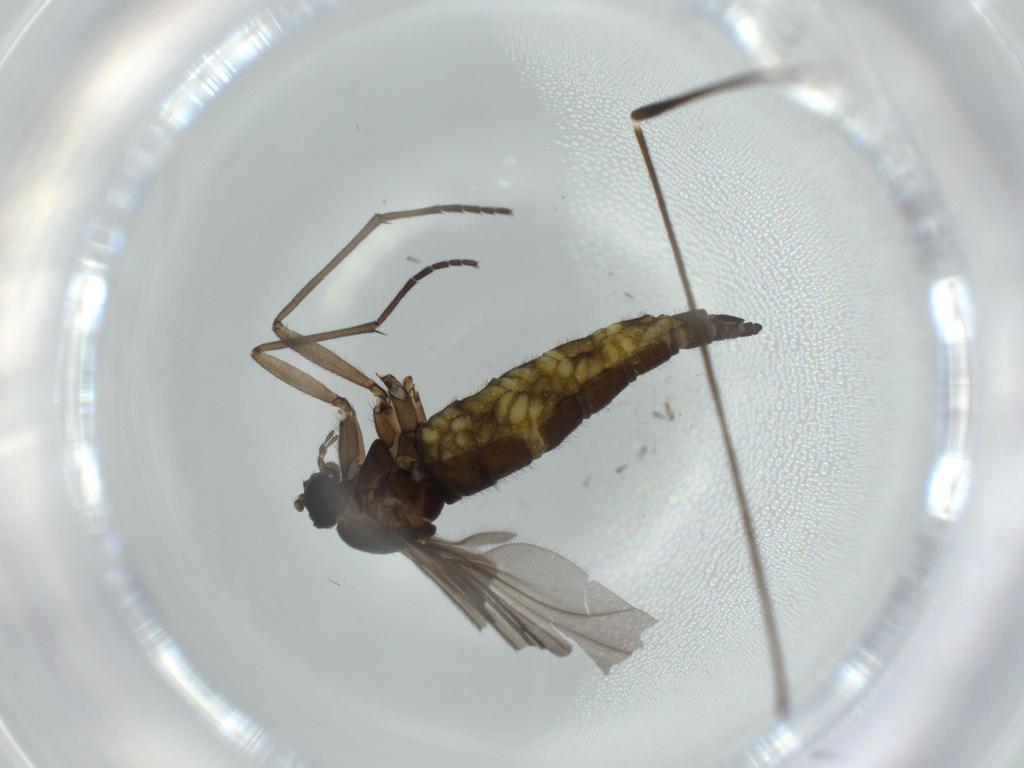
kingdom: Animalia
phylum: Arthropoda
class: Insecta
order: Diptera
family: Sciaridae
